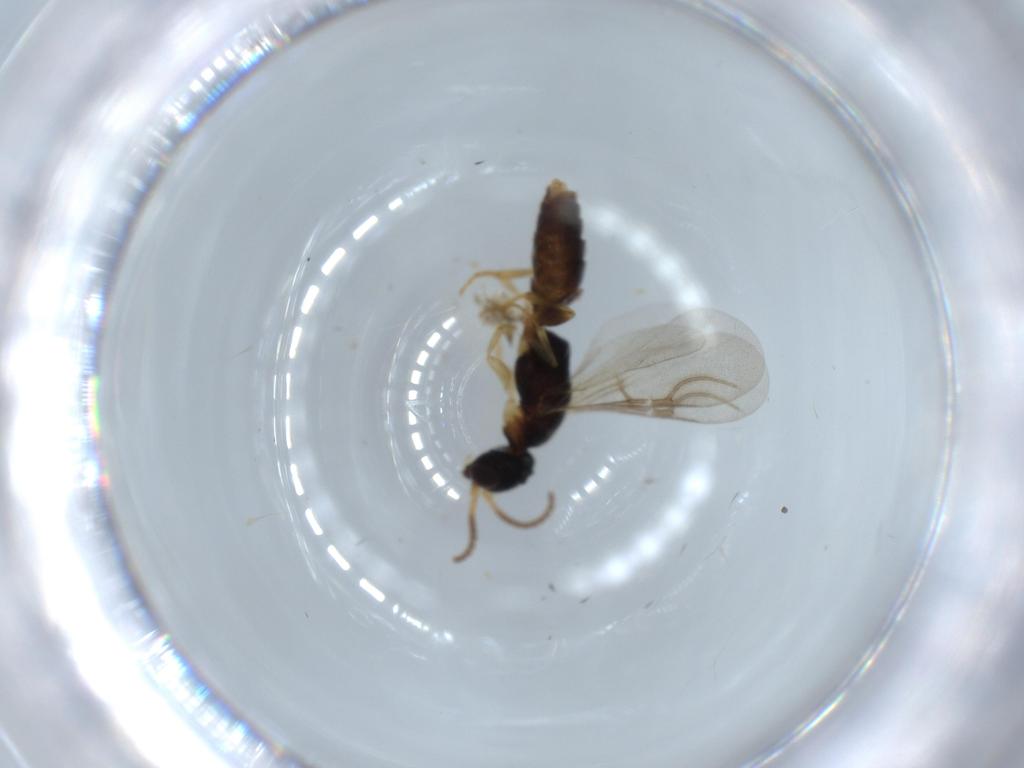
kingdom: Animalia
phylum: Arthropoda
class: Insecta
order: Hymenoptera
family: Bethylidae
